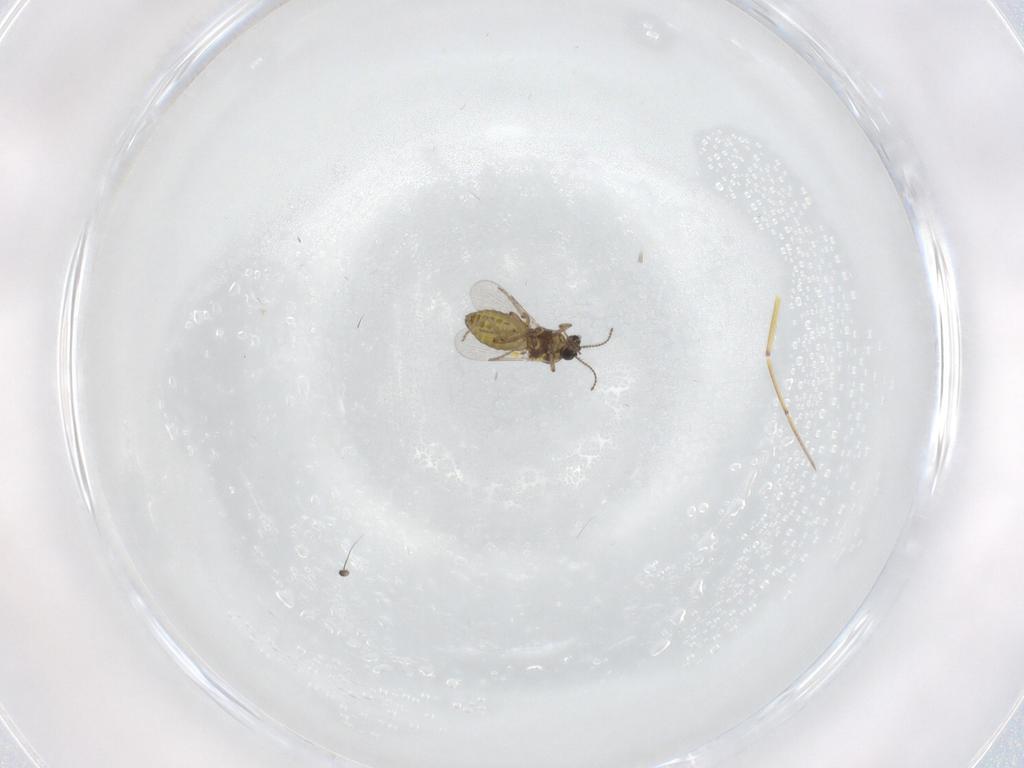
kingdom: Animalia
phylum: Arthropoda
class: Insecta
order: Diptera
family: Ceratopogonidae
